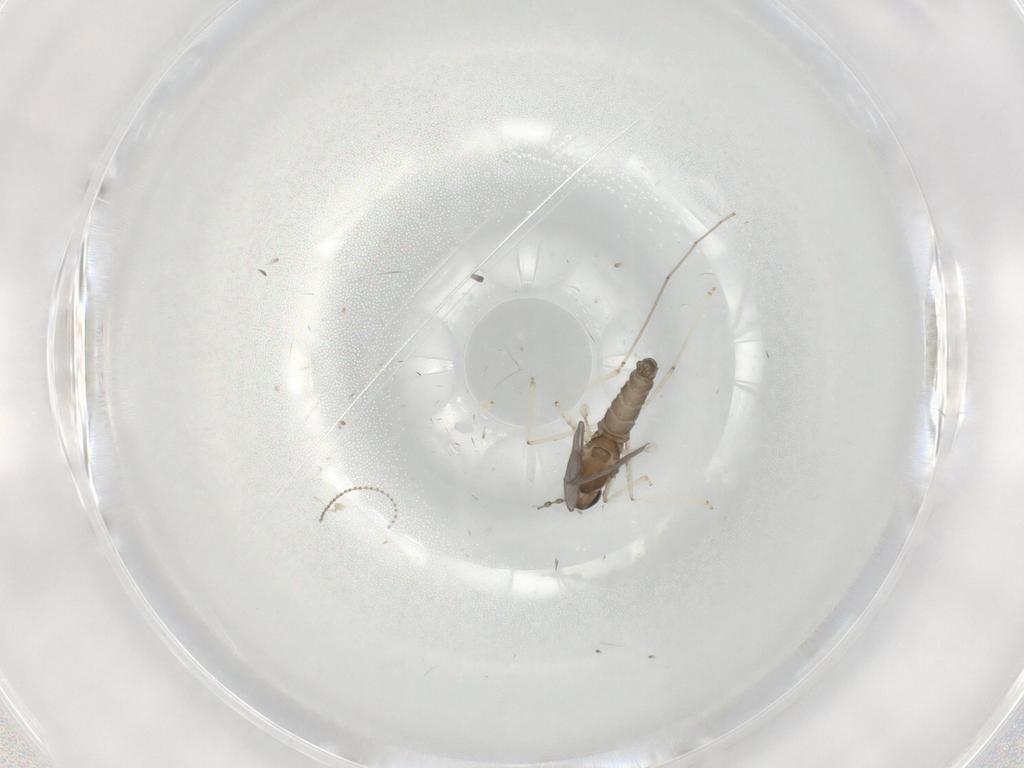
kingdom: Animalia
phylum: Arthropoda
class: Insecta
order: Diptera
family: Cecidomyiidae
